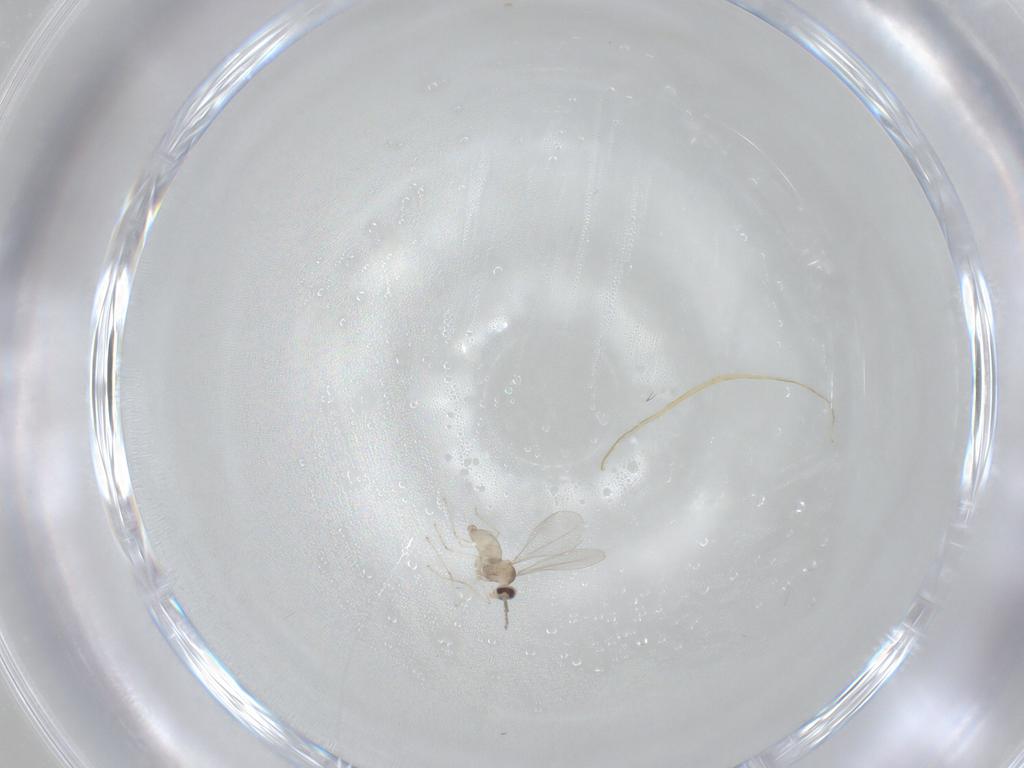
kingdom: Animalia
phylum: Arthropoda
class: Insecta
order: Diptera
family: Cecidomyiidae
